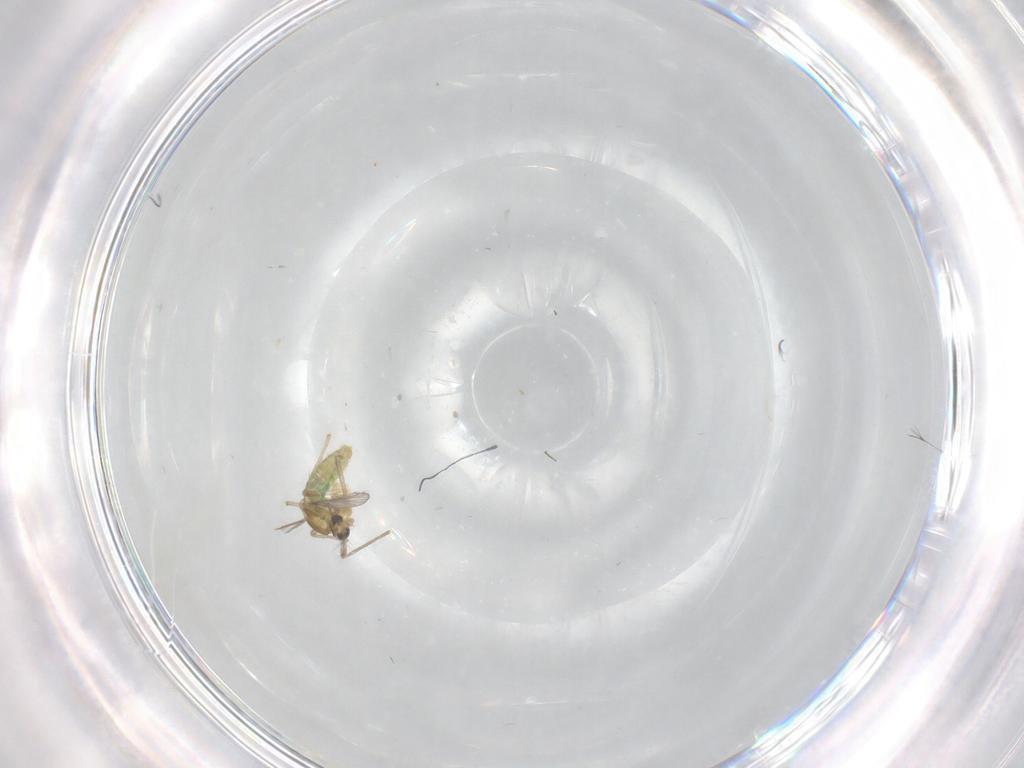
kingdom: Animalia
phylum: Arthropoda
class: Insecta
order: Diptera
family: Chironomidae
